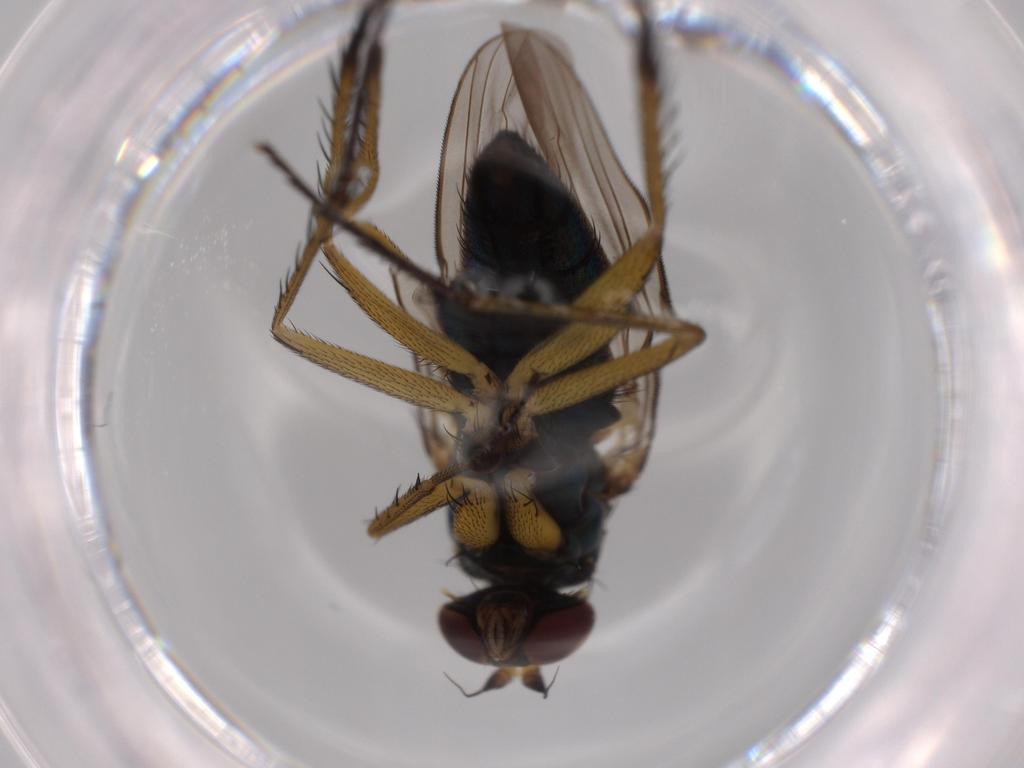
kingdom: Animalia
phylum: Arthropoda
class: Insecta
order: Diptera
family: Dolichopodidae
